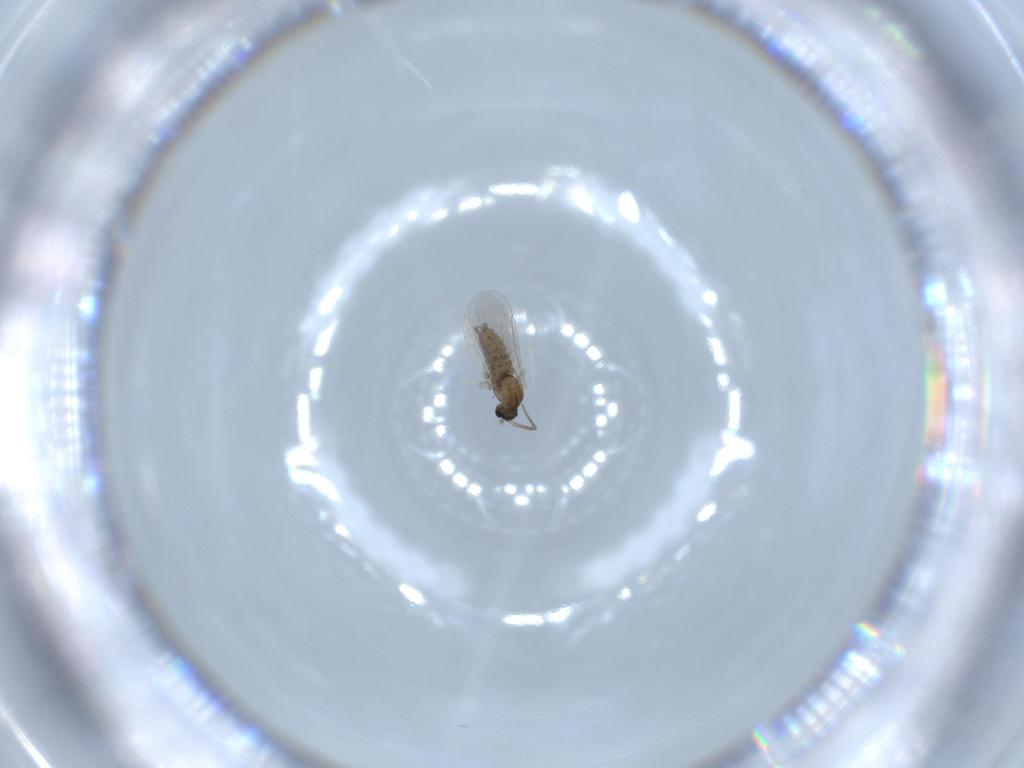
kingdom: Animalia
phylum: Arthropoda
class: Insecta
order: Diptera
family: Cecidomyiidae
